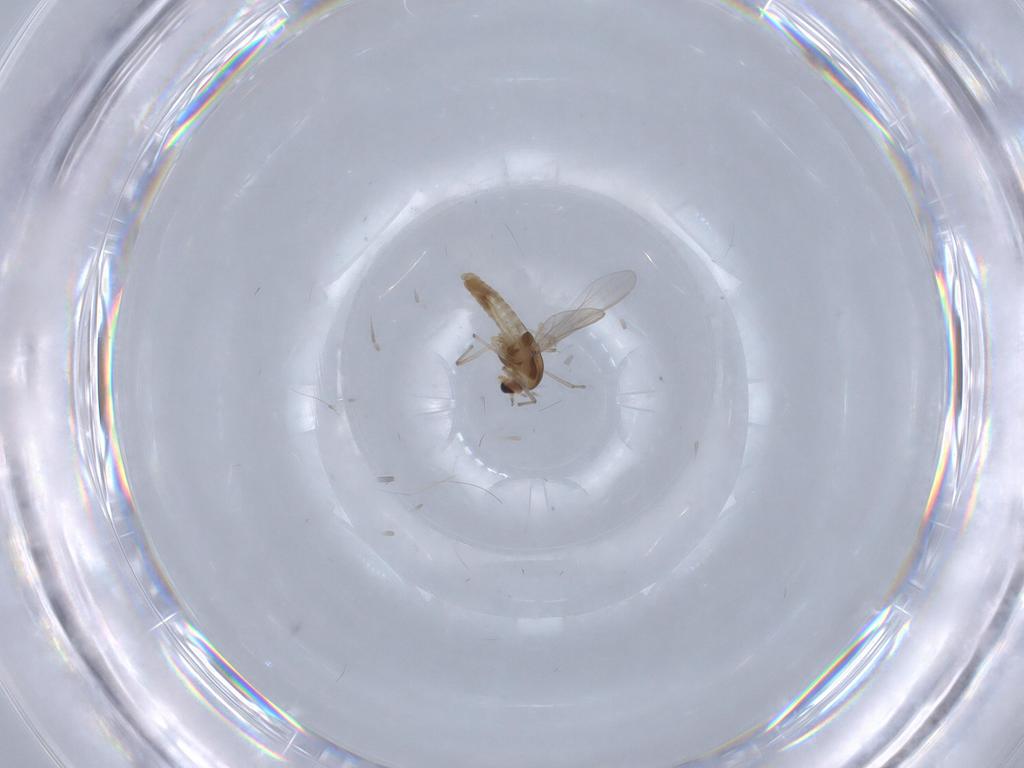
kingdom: Animalia
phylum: Arthropoda
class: Insecta
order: Diptera
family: Chironomidae
